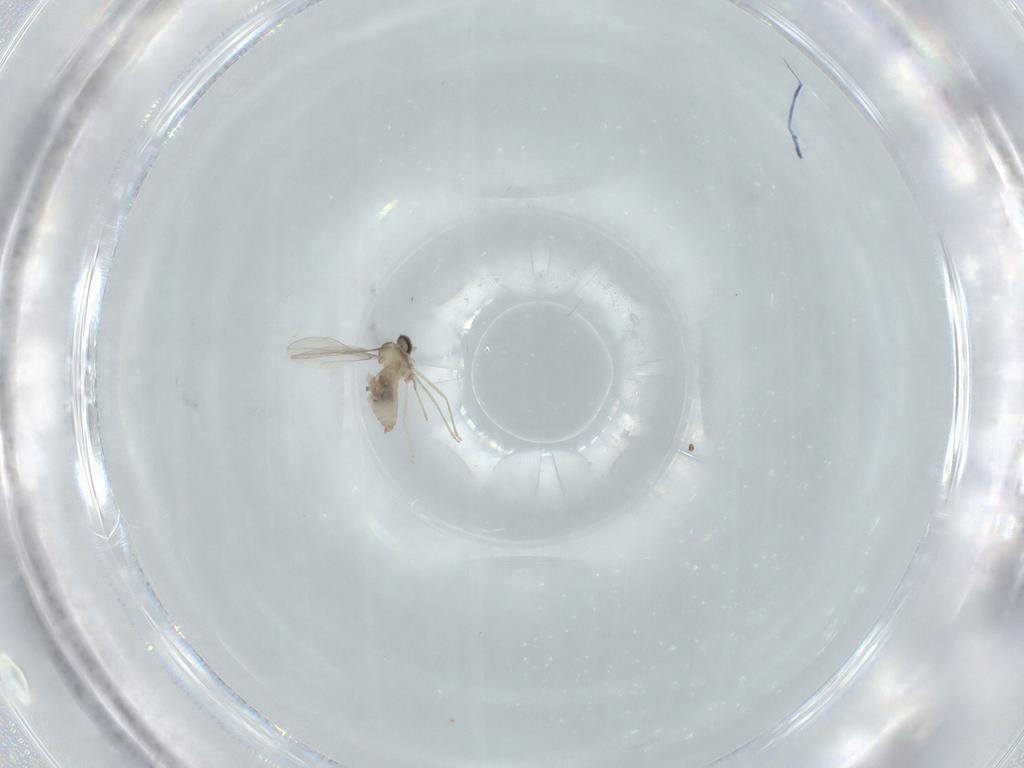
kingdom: Animalia
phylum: Arthropoda
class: Insecta
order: Diptera
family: Cecidomyiidae
